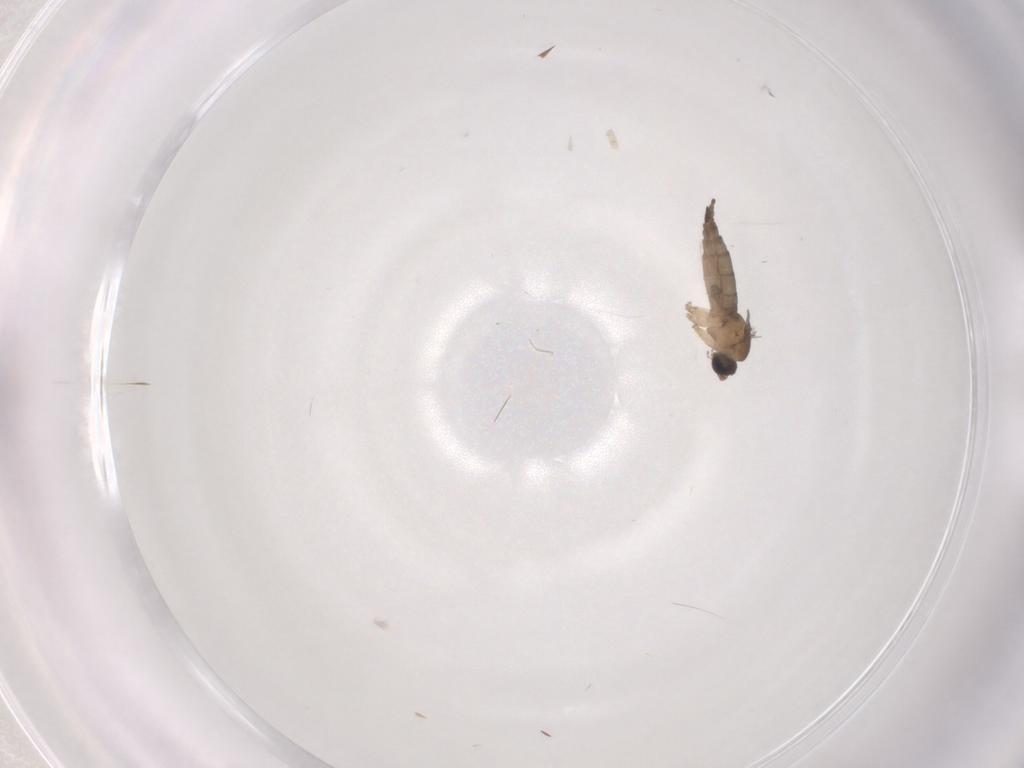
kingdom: Animalia
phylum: Arthropoda
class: Insecta
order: Diptera
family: Sciaridae
